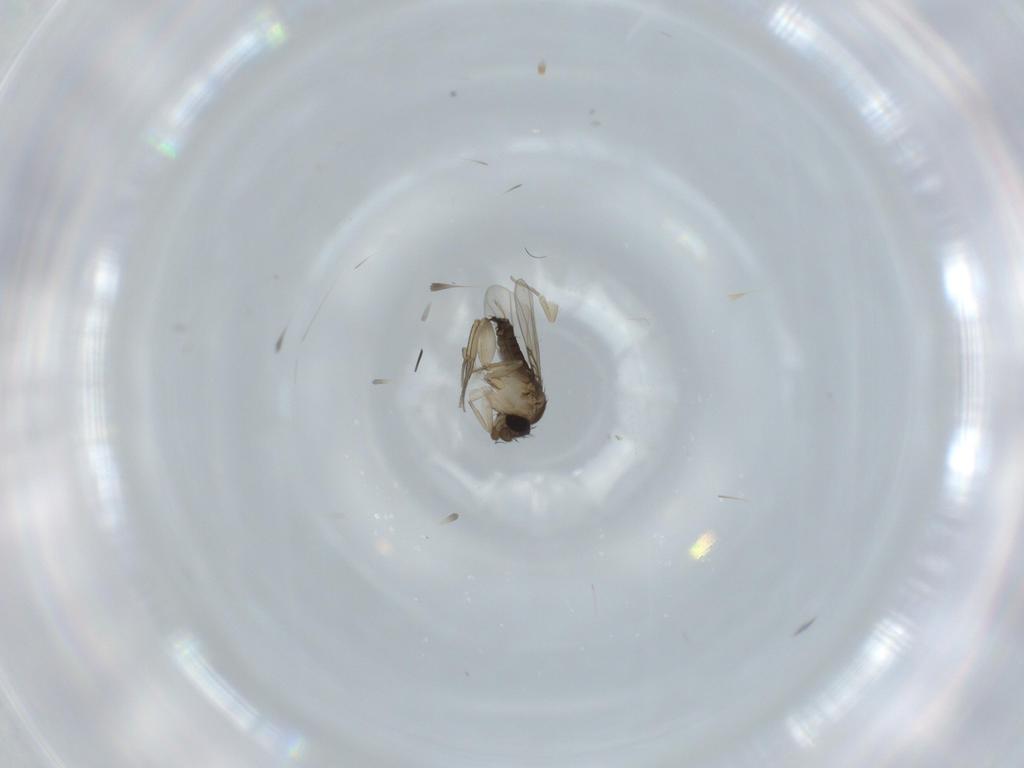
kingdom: Animalia
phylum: Arthropoda
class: Insecta
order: Diptera
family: Phoridae
